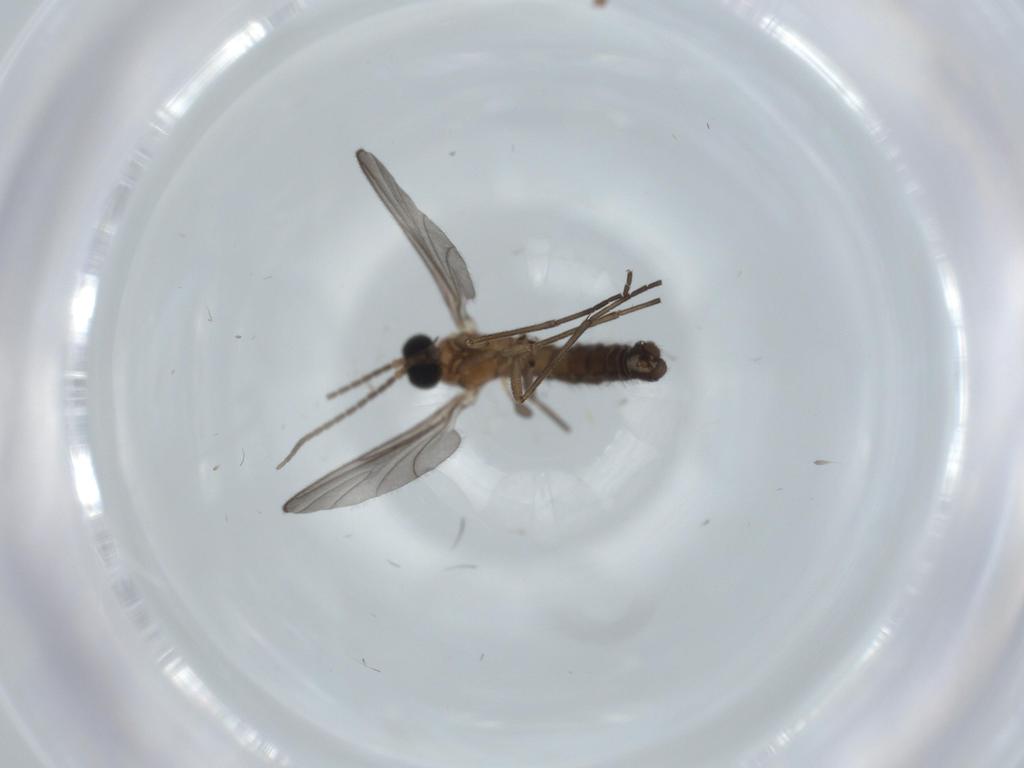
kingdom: Animalia
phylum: Arthropoda
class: Insecta
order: Diptera
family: Sciaridae
